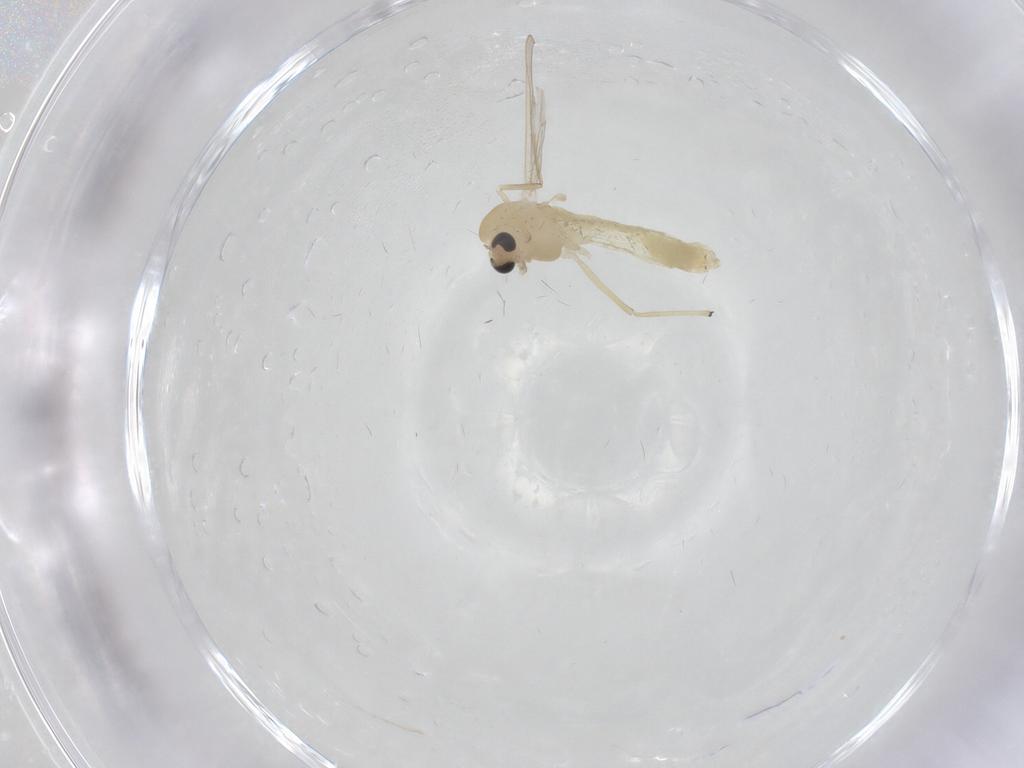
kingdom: Animalia
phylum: Arthropoda
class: Insecta
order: Diptera
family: Chironomidae
